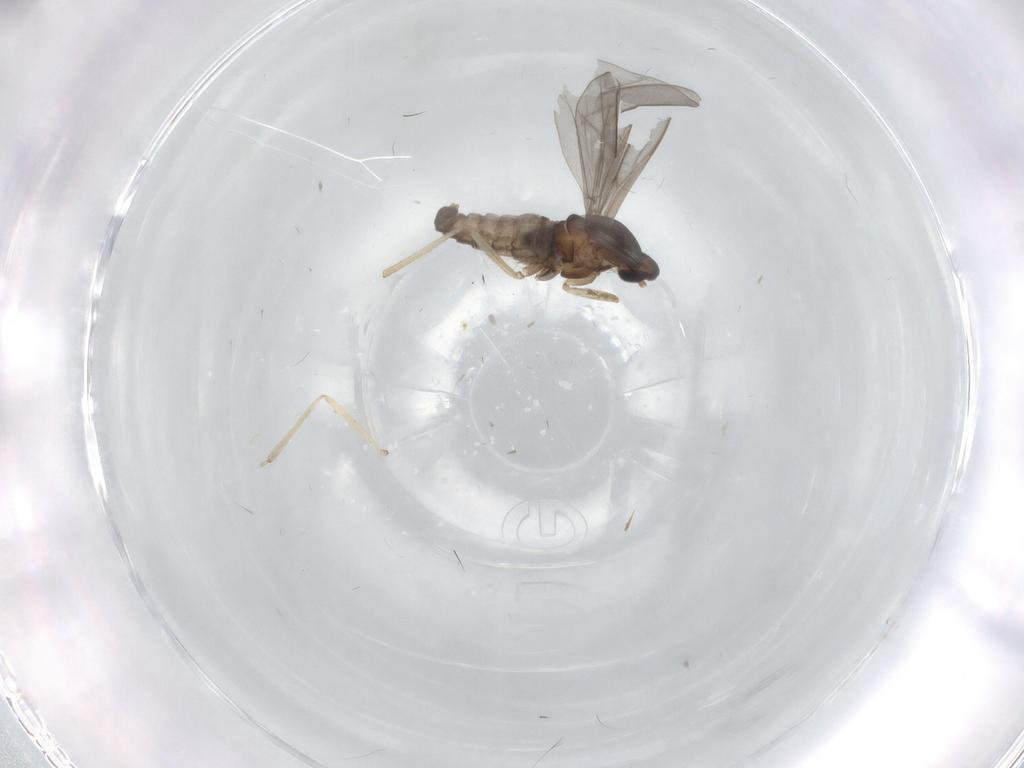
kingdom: Animalia
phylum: Arthropoda
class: Insecta
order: Diptera
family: Cecidomyiidae
